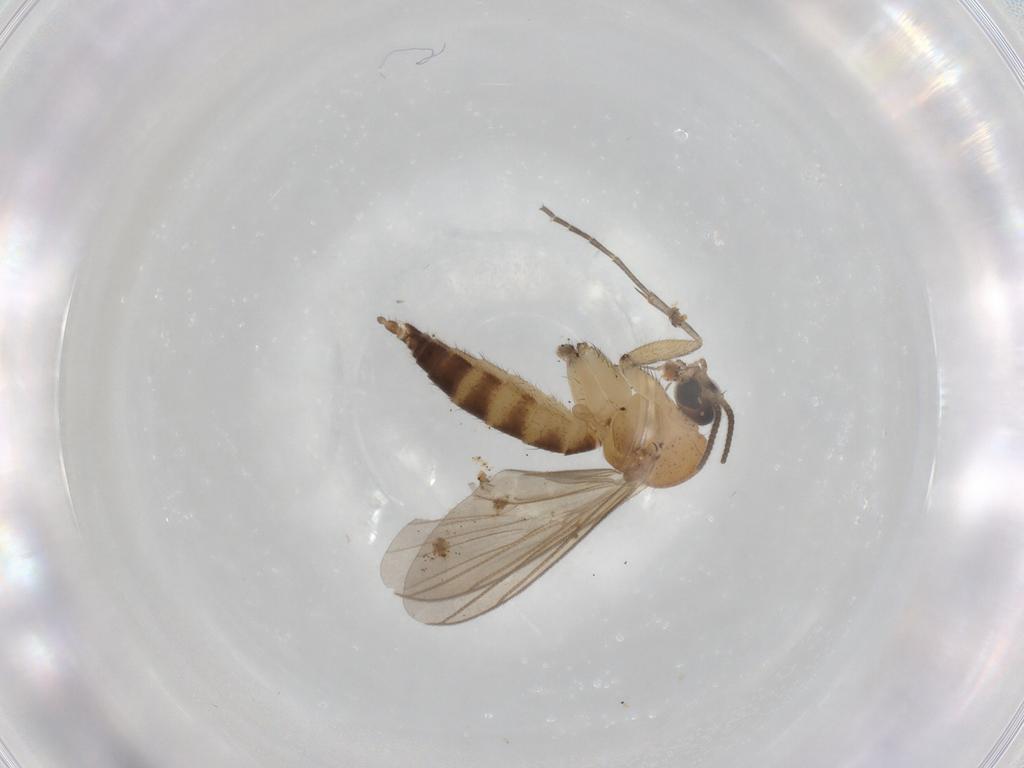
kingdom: Animalia
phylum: Arthropoda
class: Insecta
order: Diptera
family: Mycetophilidae
